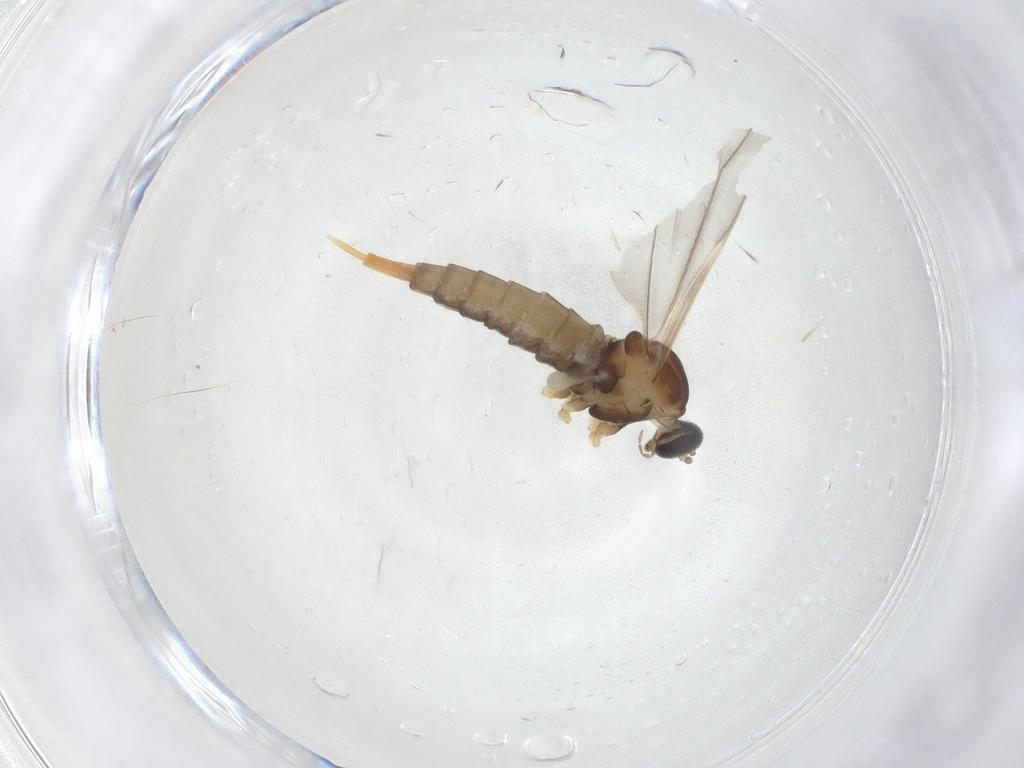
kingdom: Animalia
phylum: Arthropoda
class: Insecta
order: Diptera
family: Cecidomyiidae
